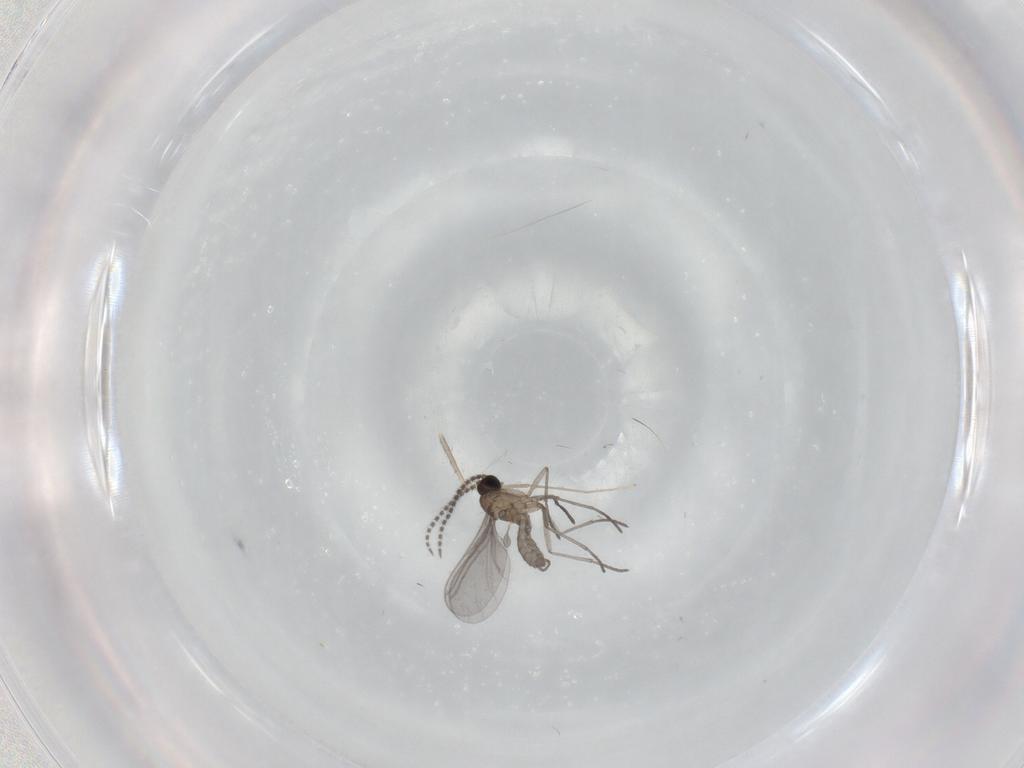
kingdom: Animalia
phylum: Arthropoda
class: Insecta
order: Diptera
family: Cecidomyiidae
